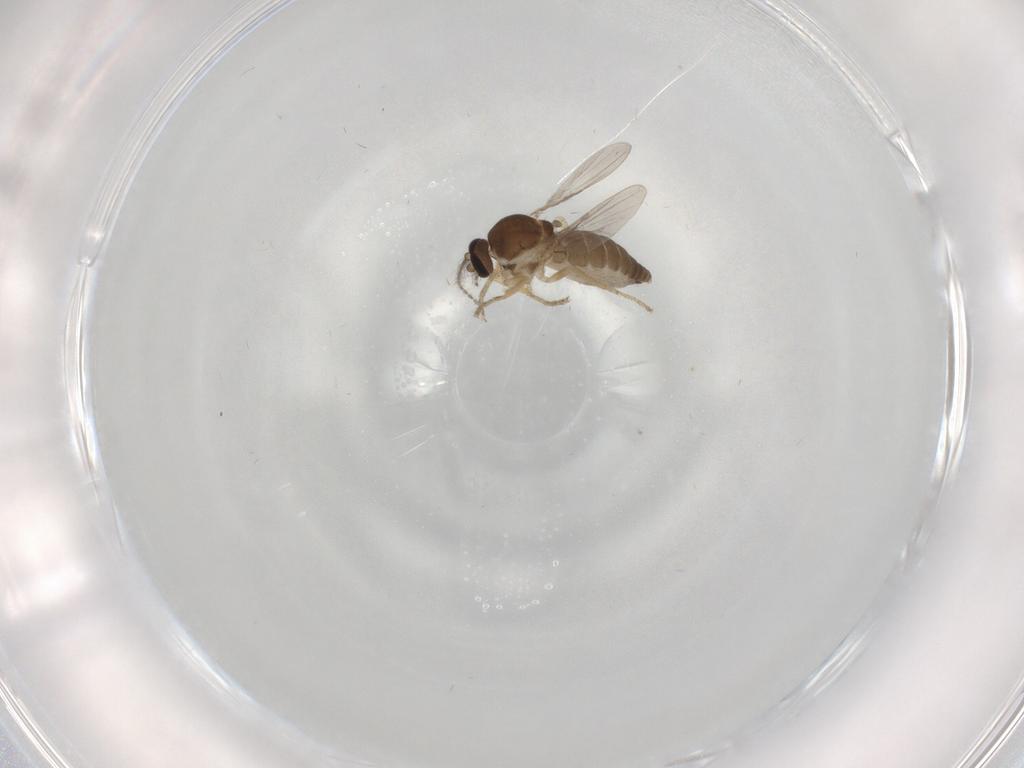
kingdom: Animalia
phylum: Arthropoda
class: Insecta
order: Diptera
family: Ceratopogonidae
